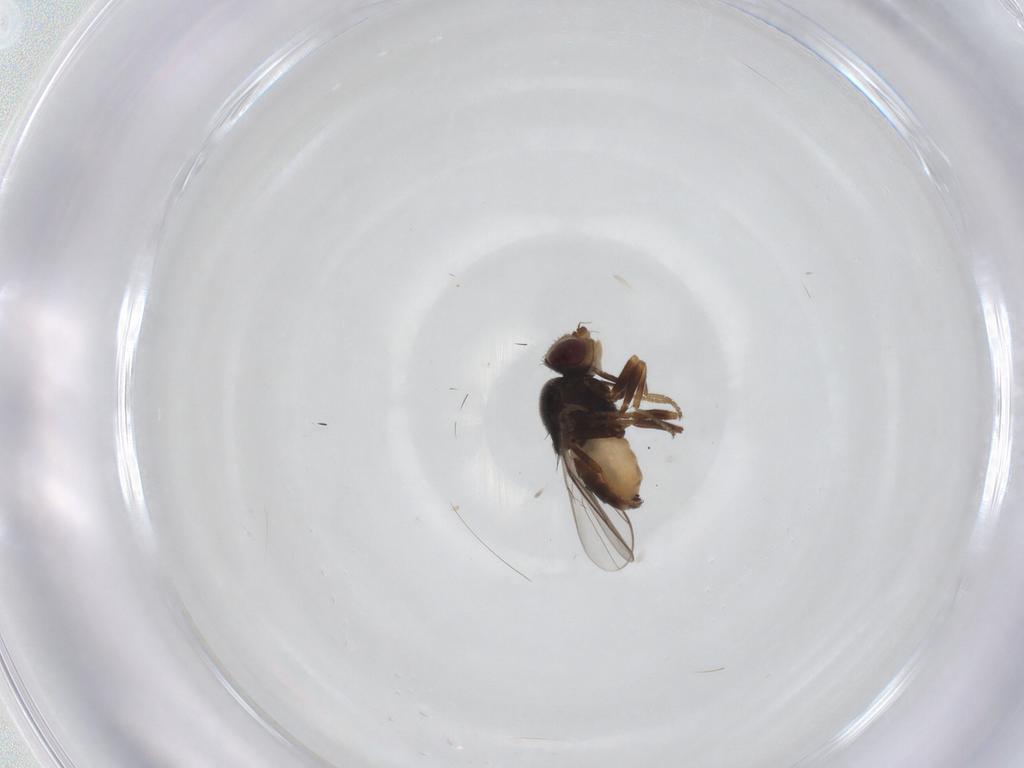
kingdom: Animalia
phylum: Arthropoda
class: Insecta
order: Diptera
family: Chloropidae
